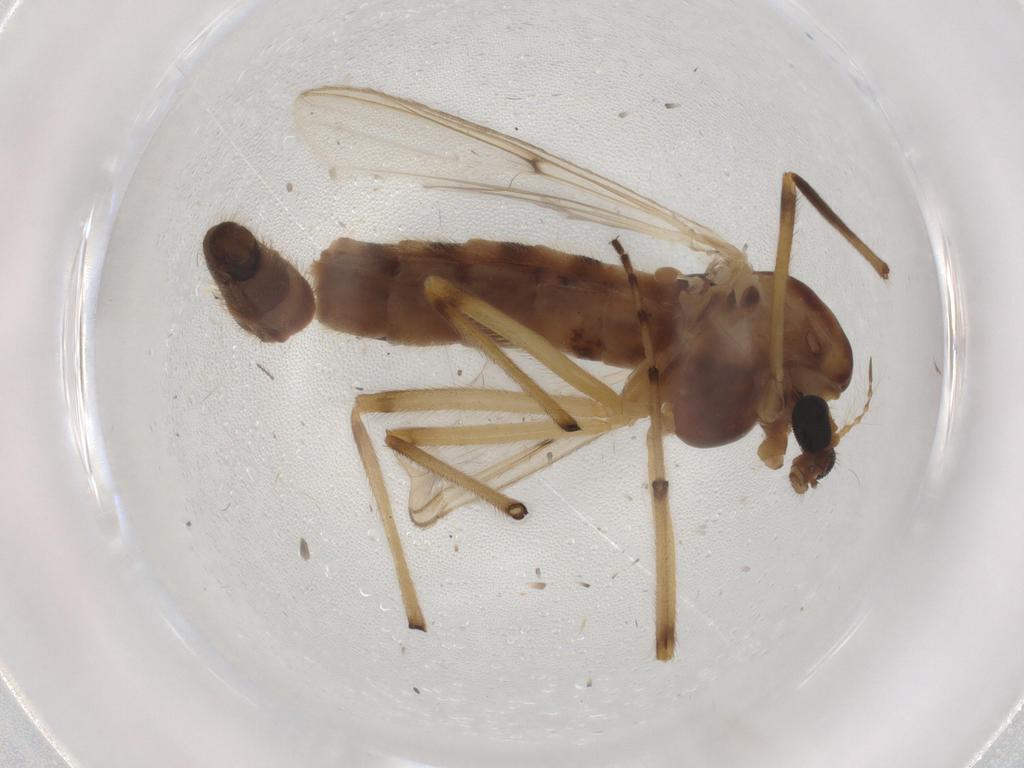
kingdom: Animalia
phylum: Arthropoda
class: Insecta
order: Diptera
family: Chironomidae
